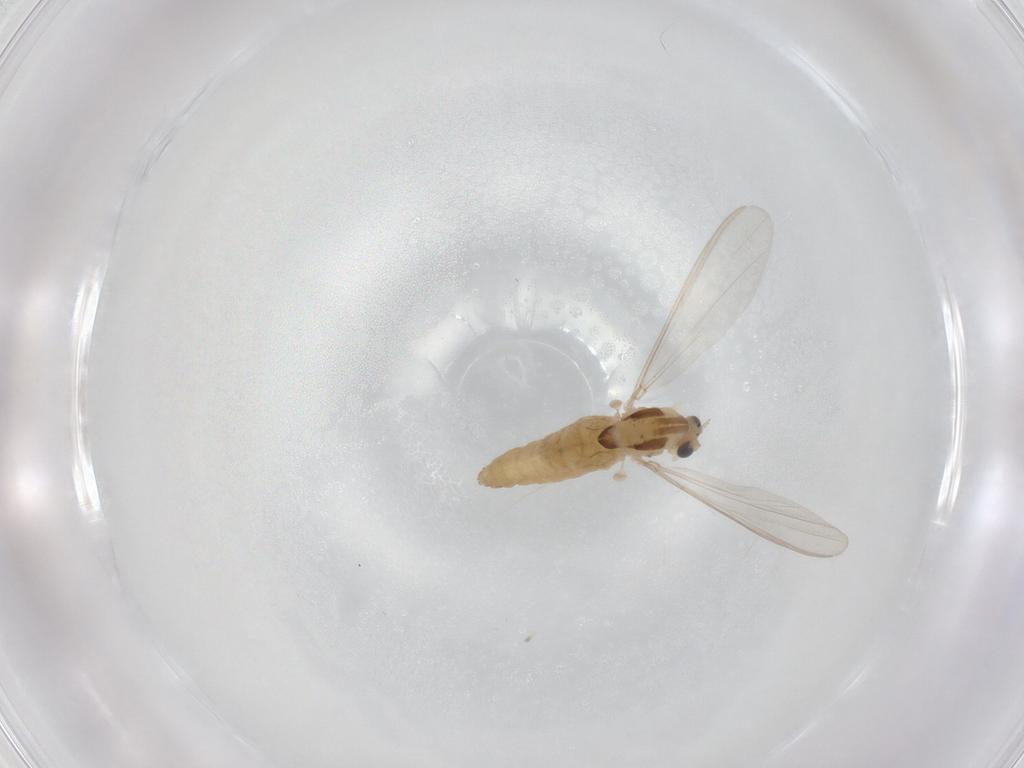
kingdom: Animalia
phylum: Arthropoda
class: Insecta
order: Diptera
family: Chironomidae
